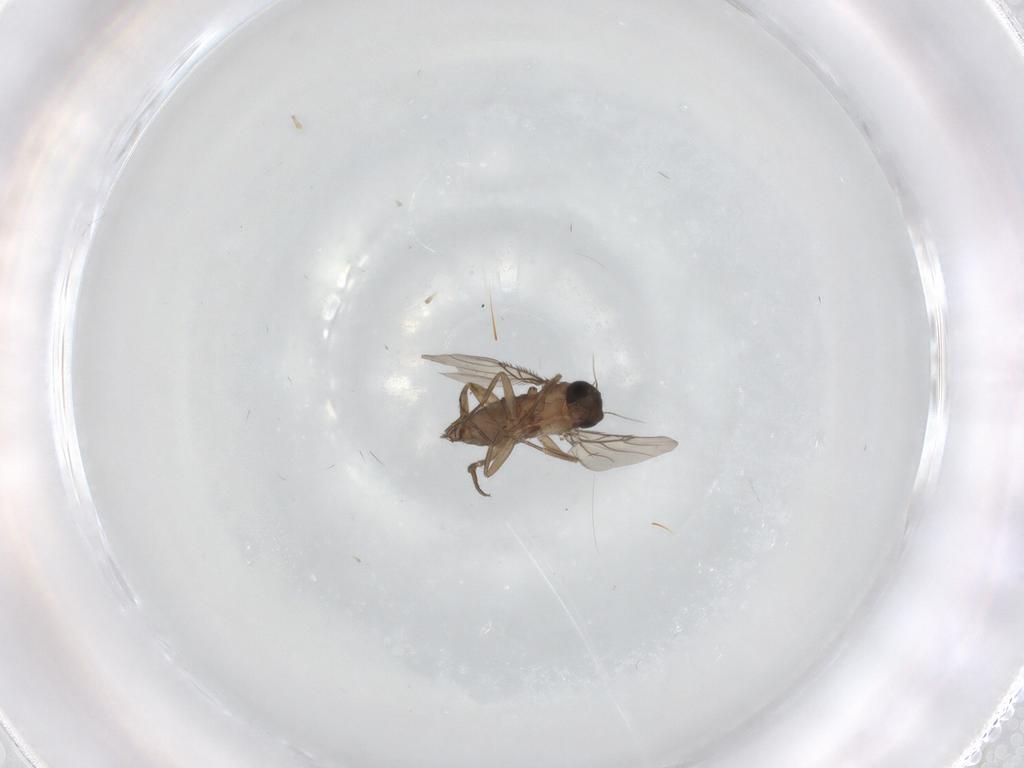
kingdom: Animalia
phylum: Arthropoda
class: Insecta
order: Diptera
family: Phoridae
